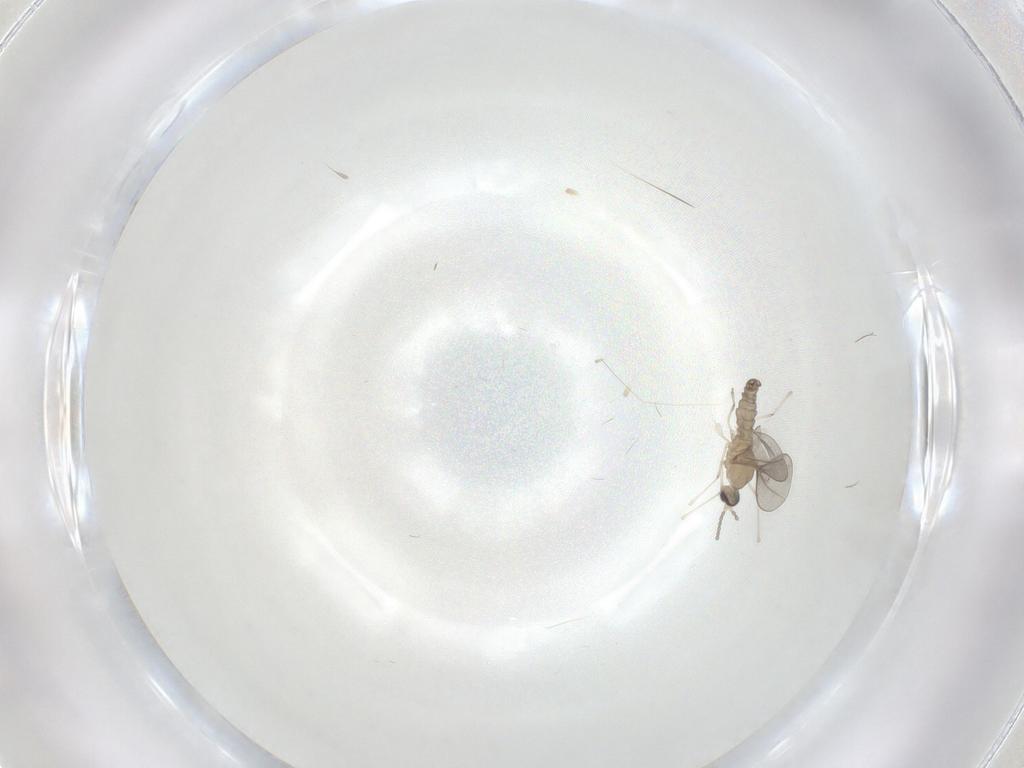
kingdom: Animalia
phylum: Arthropoda
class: Insecta
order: Diptera
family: Cecidomyiidae
